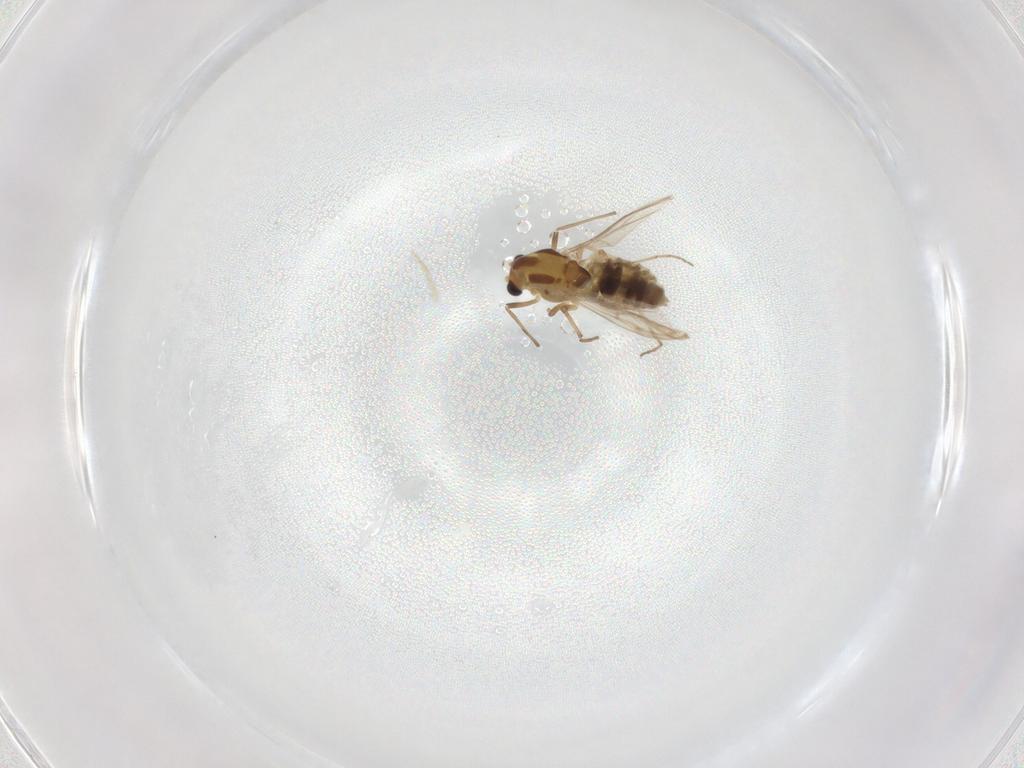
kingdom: Animalia
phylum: Arthropoda
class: Insecta
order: Diptera
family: Chironomidae
